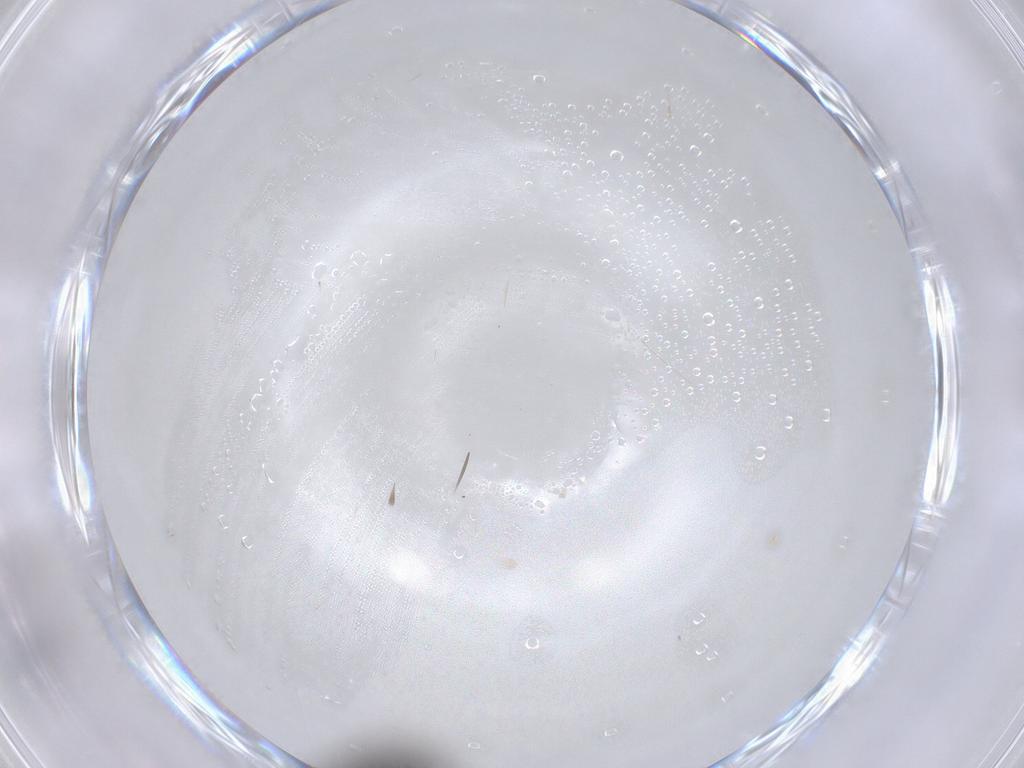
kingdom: Animalia
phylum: Arthropoda
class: Insecta
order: Coleoptera
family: Staphylinidae
